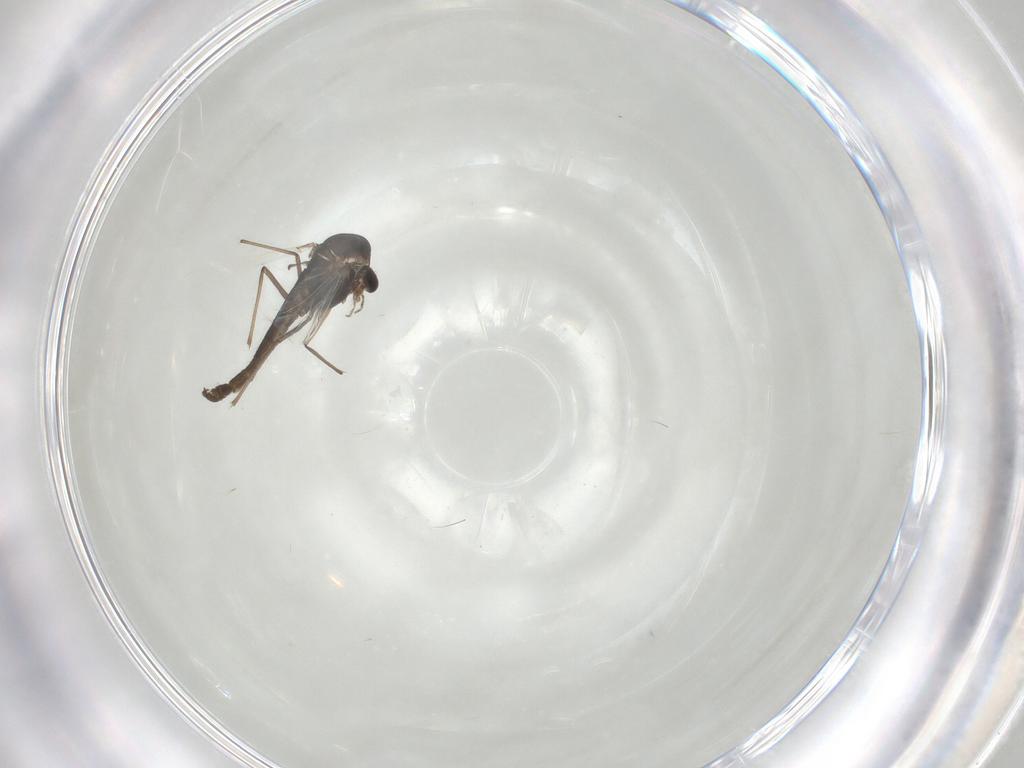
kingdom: Animalia
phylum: Arthropoda
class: Insecta
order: Diptera
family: Chironomidae
